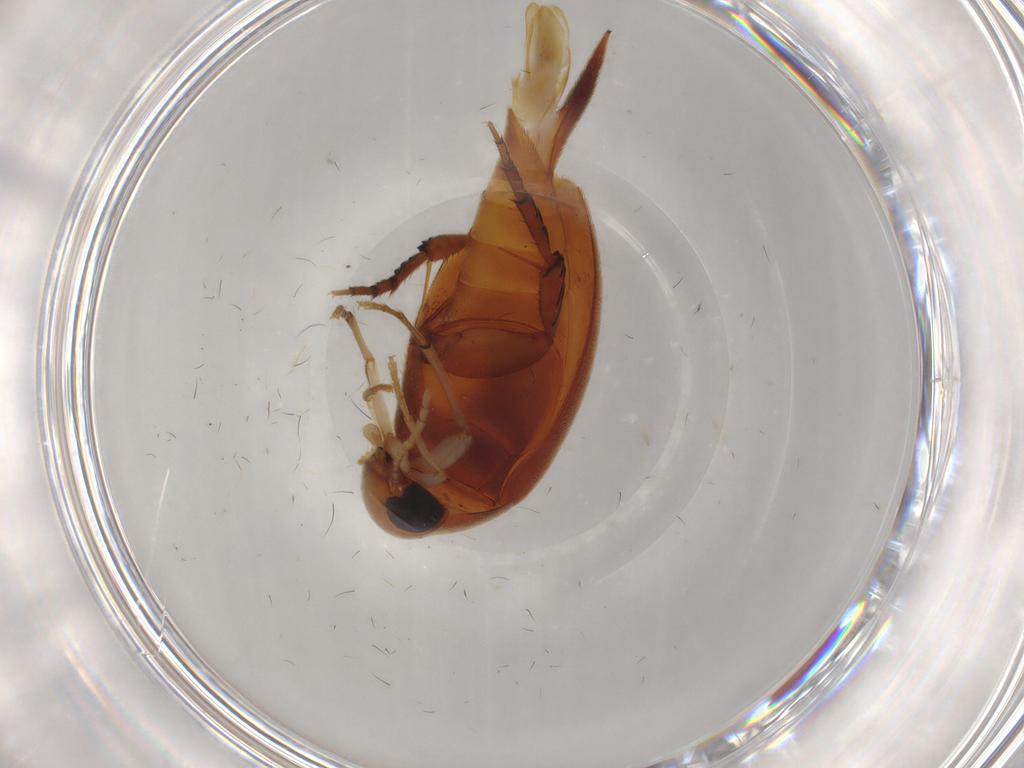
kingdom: Animalia
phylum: Arthropoda
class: Insecta
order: Coleoptera
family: Mordellidae
